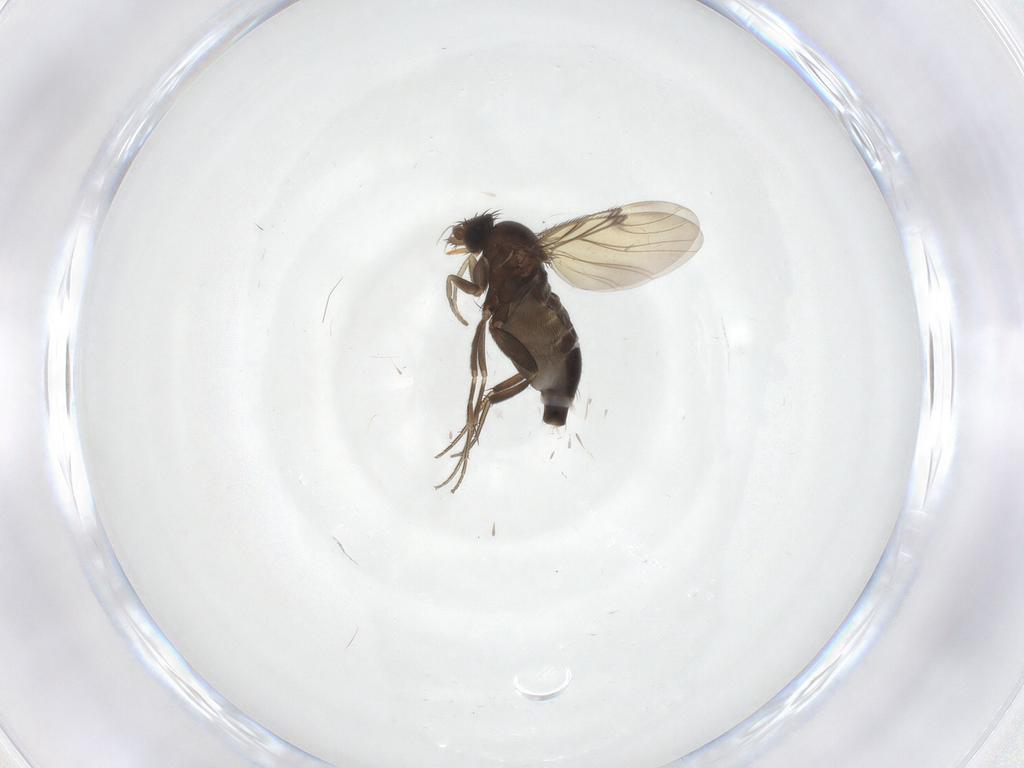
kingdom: Animalia
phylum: Arthropoda
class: Insecta
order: Diptera
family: Phoridae
